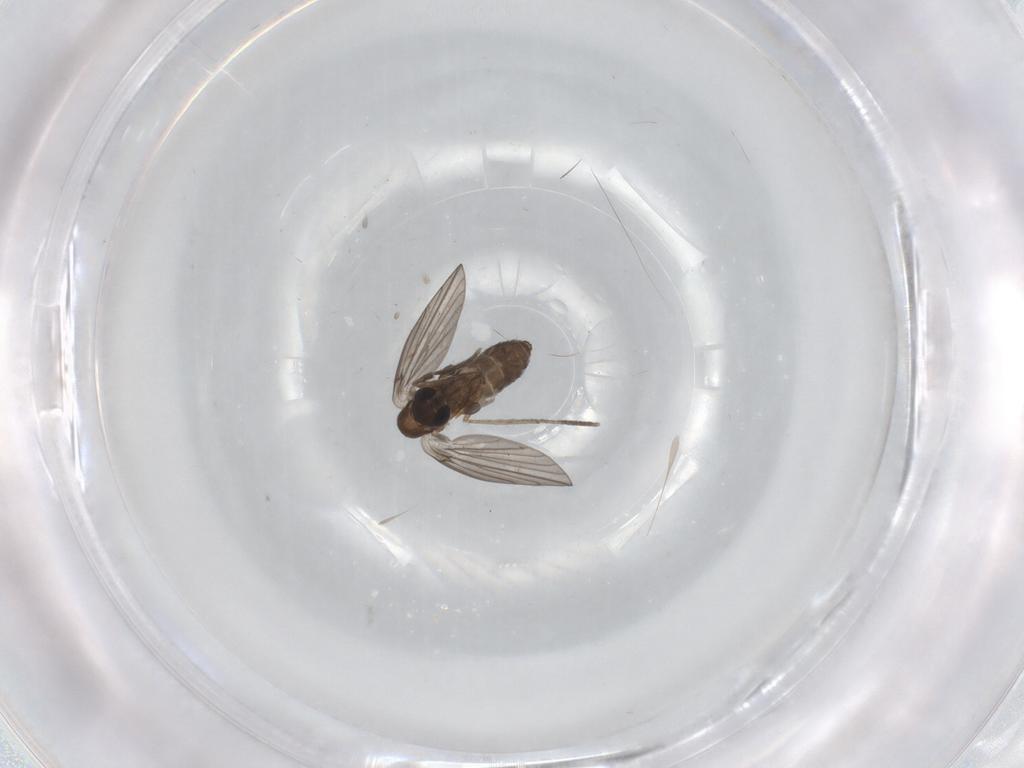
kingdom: Animalia
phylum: Arthropoda
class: Insecta
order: Diptera
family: Psychodidae
